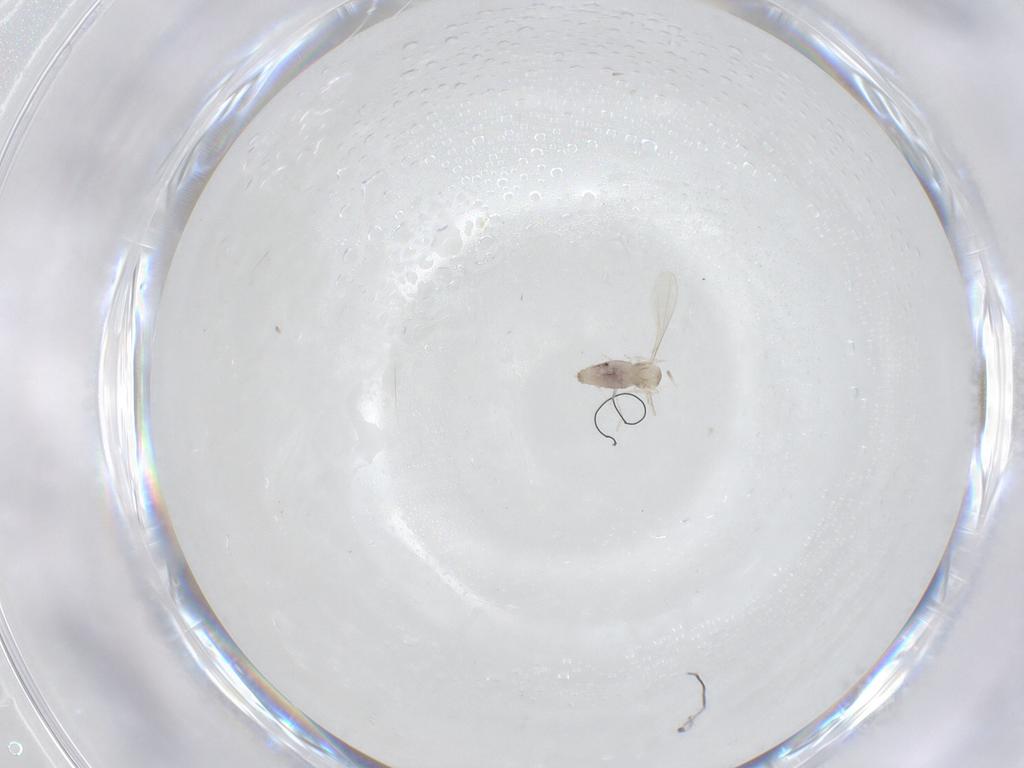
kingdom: Animalia
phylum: Arthropoda
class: Insecta
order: Diptera
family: Cecidomyiidae
